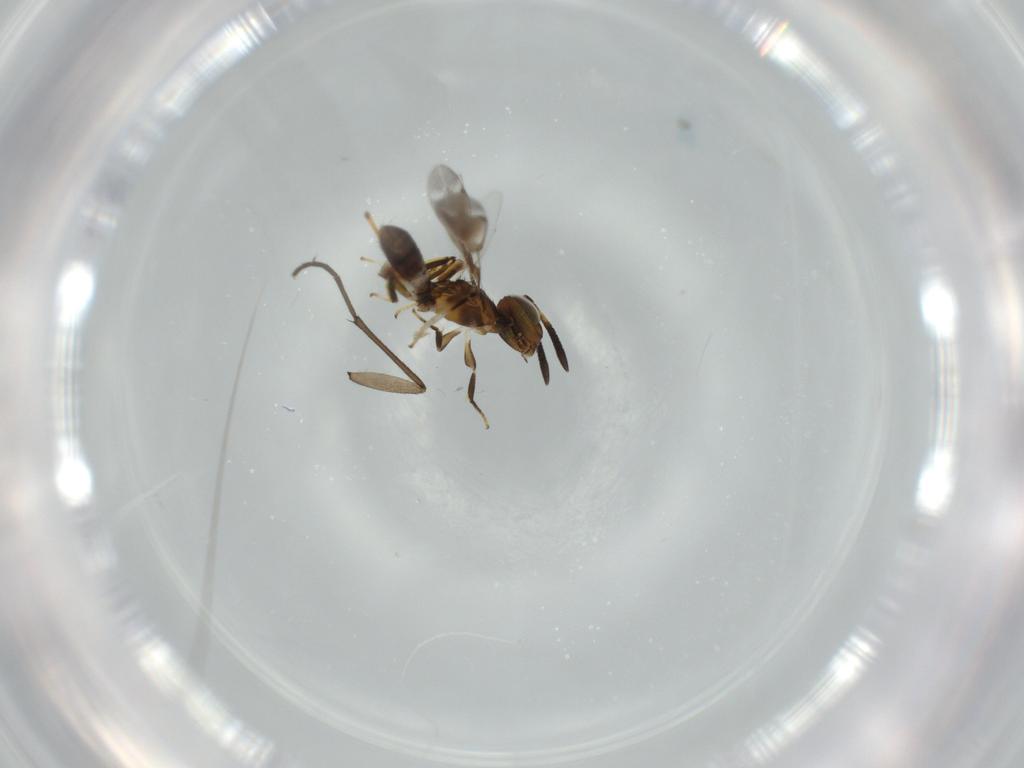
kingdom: Animalia
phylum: Arthropoda
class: Insecta
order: Hymenoptera
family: Eupelmidae
